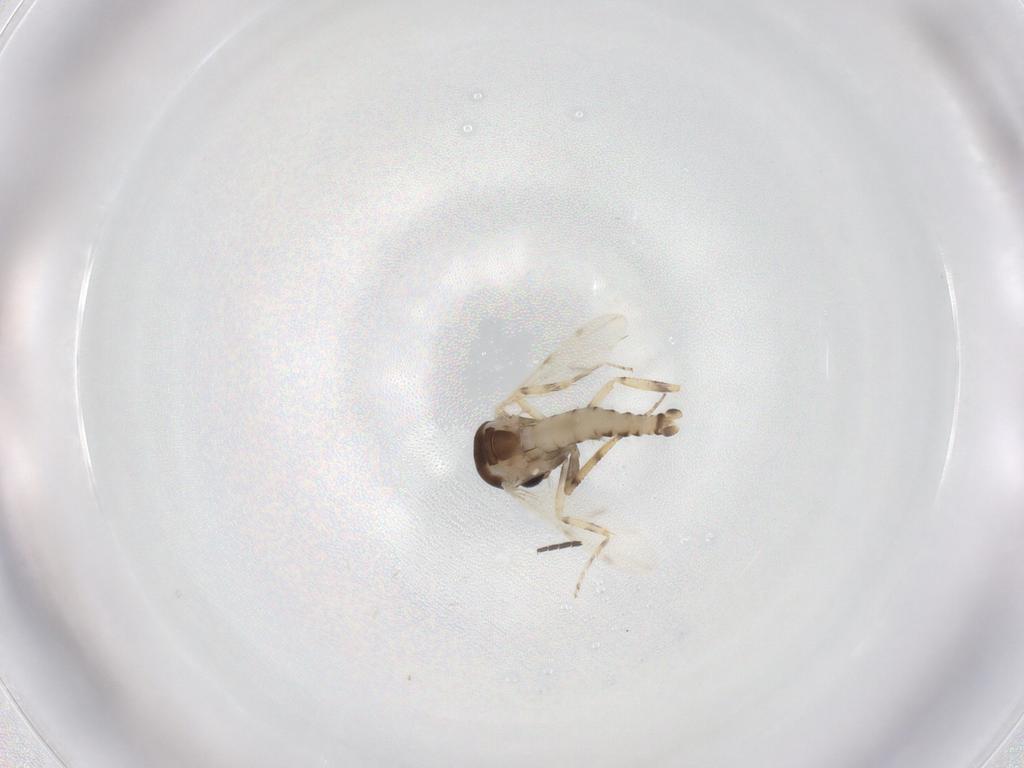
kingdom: Animalia
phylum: Arthropoda
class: Insecta
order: Diptera
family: Ceratopogonidae
